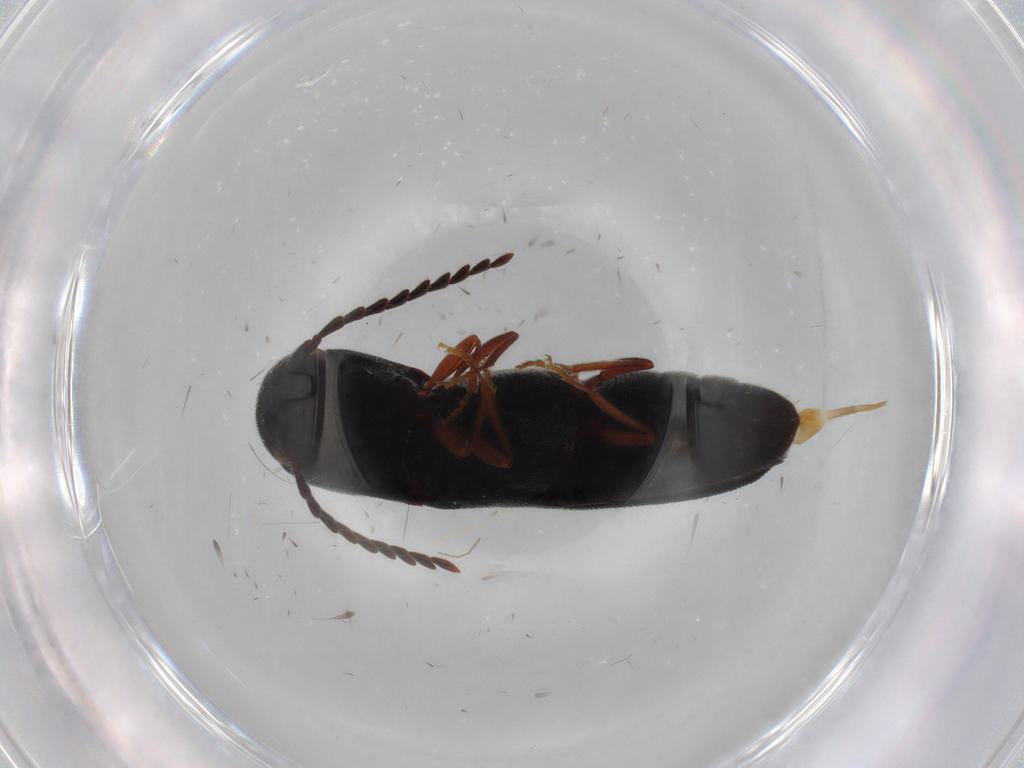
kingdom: Animalia
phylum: Arthropoda
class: Insecta
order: Coleoptera
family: Eucnemidae
